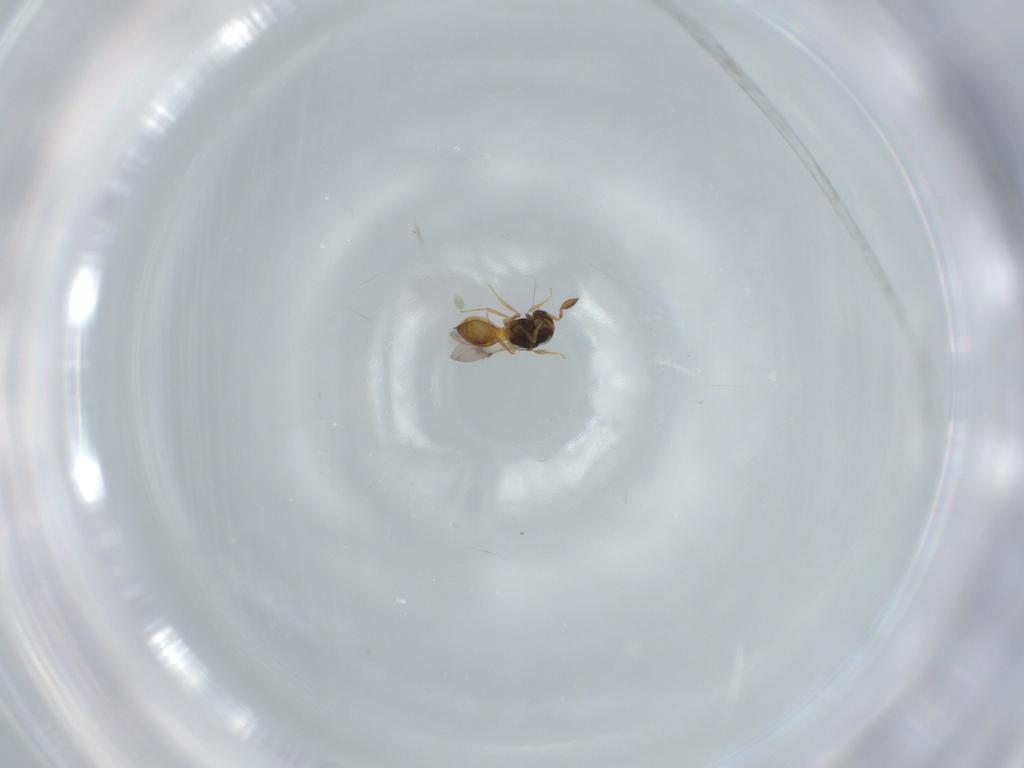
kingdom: Animalia
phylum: Arthropoda
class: Insecta
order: Hymenoptera
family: Scelionidae
